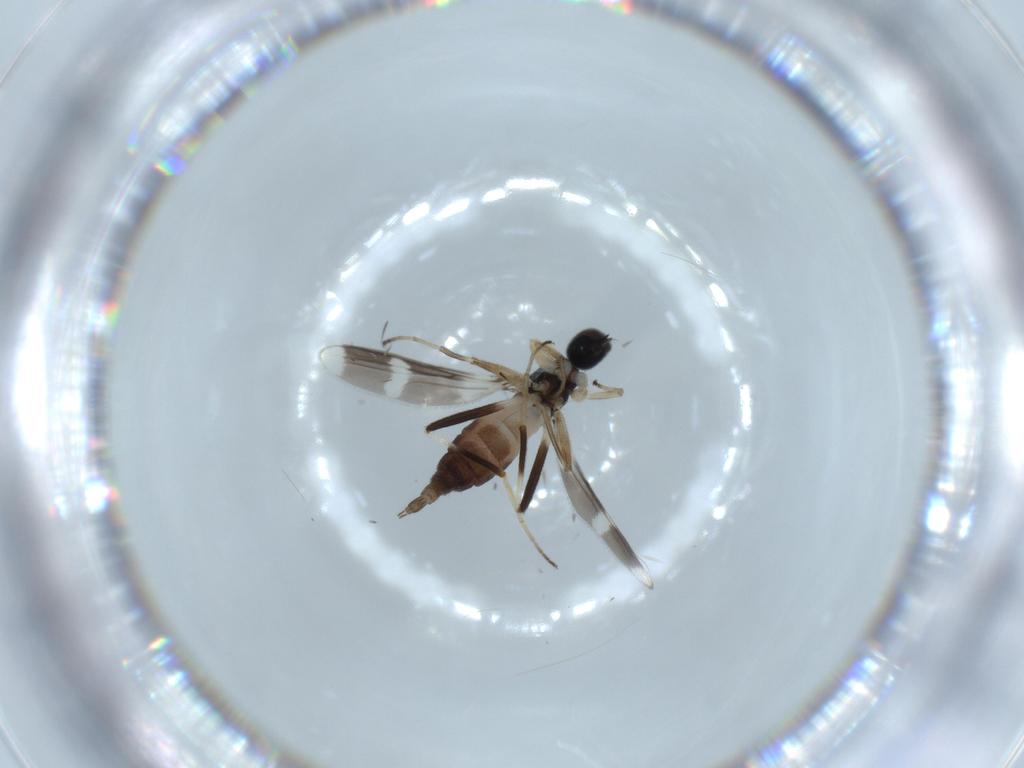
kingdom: Animalia
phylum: Arthropoda
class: Insecta
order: Diptera
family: Hybotidae
